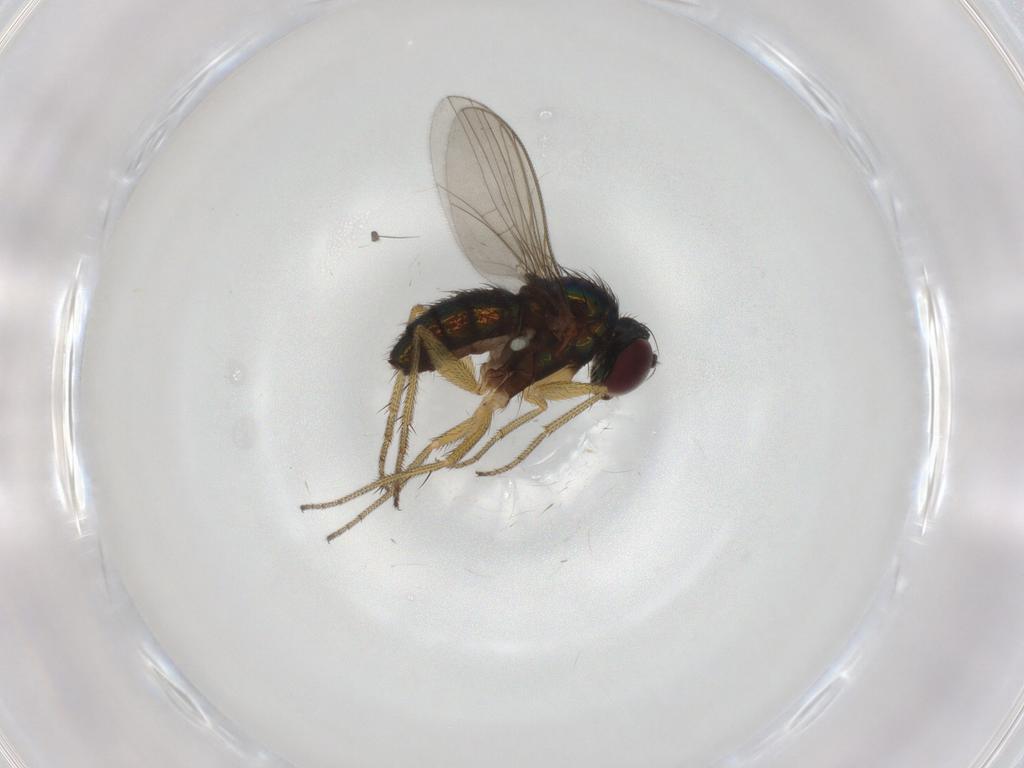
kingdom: Animalia
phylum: Arthropoda
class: Insecta
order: Diptera
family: Chironomidae
